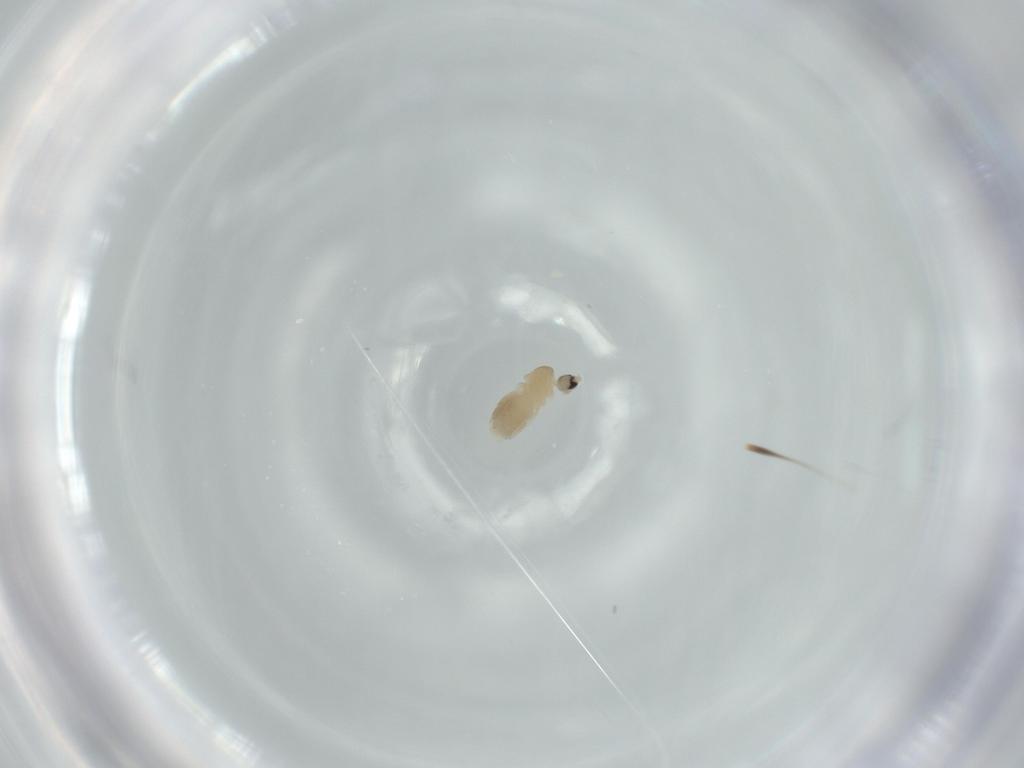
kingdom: Animalia
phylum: Arthropoda
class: Insecta
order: Diptera
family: Cecidomyiidae
